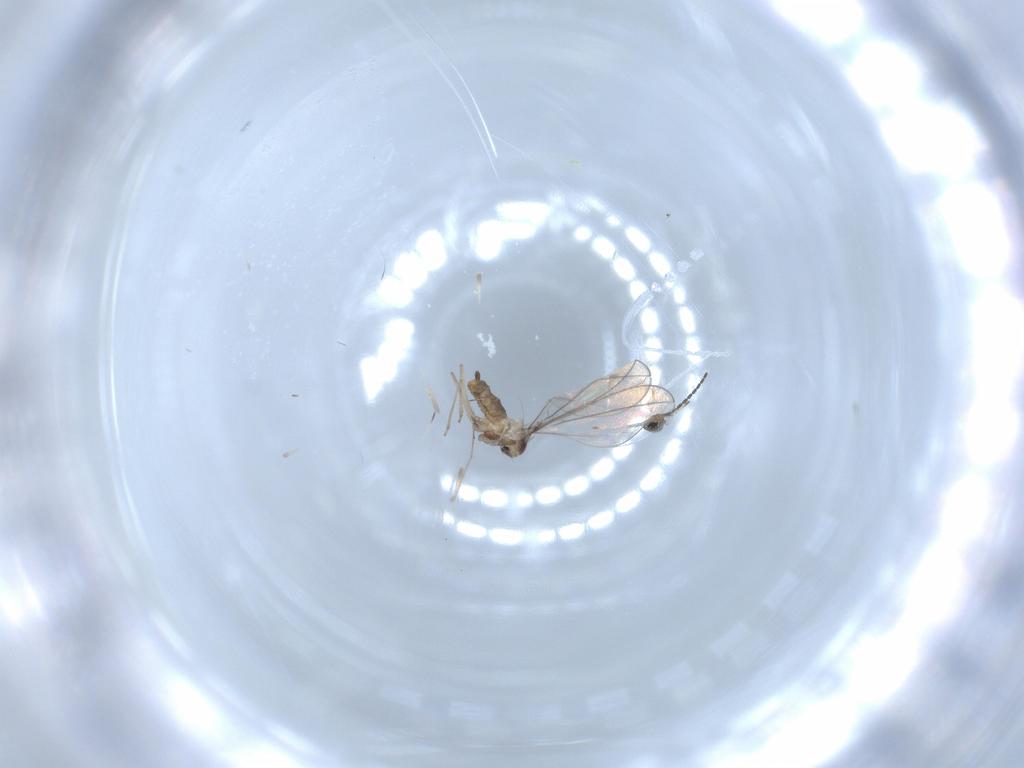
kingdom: Animalia
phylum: Arthropoda
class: Insecta
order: Diptera
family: Cecidomyiidae
